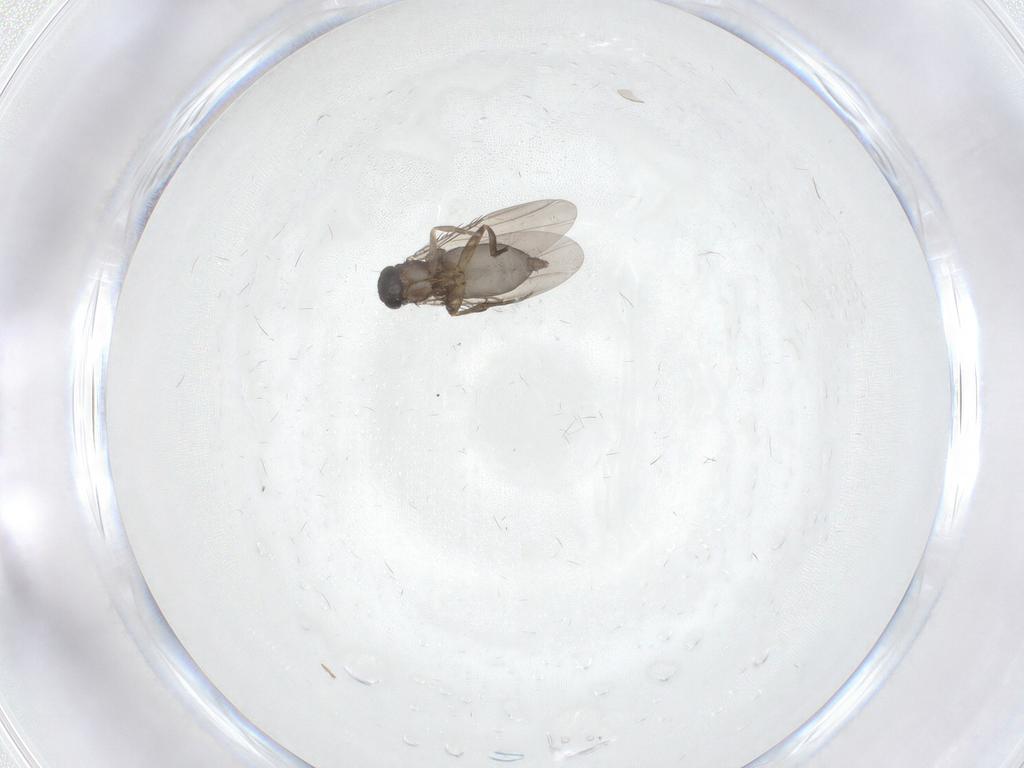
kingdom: Animalia
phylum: Arthropoda
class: Insecta
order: Diptera
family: Phoridae
